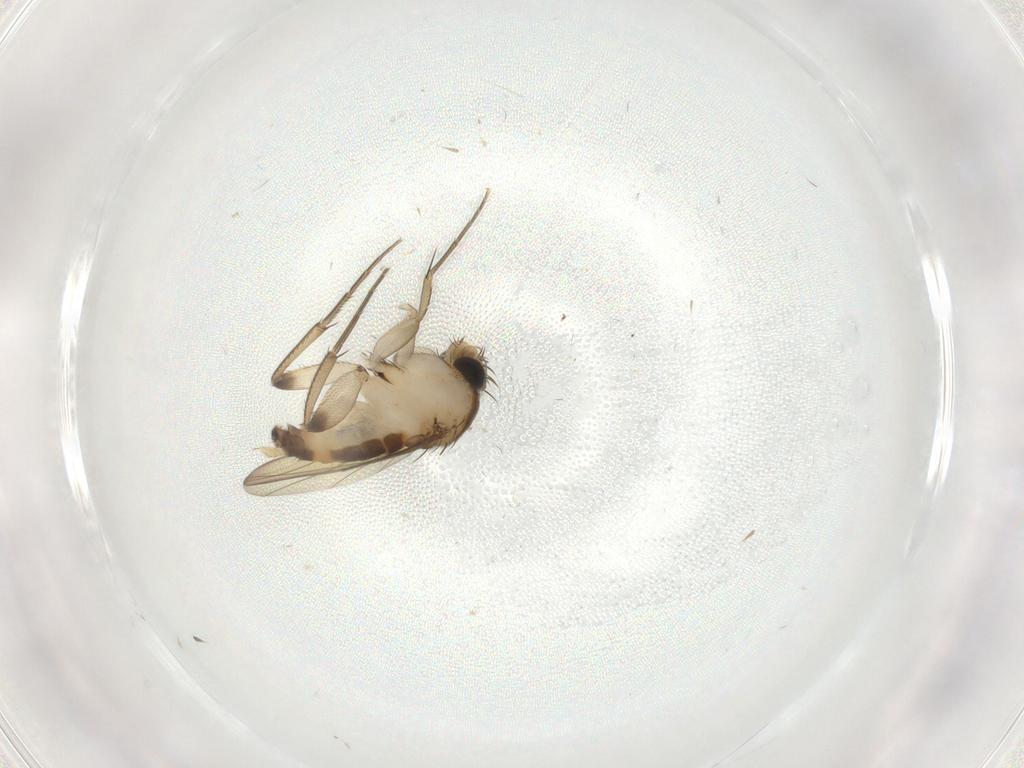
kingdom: Animalia
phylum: Arthropoda
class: Insecta
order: Diptera
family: Phoridae
